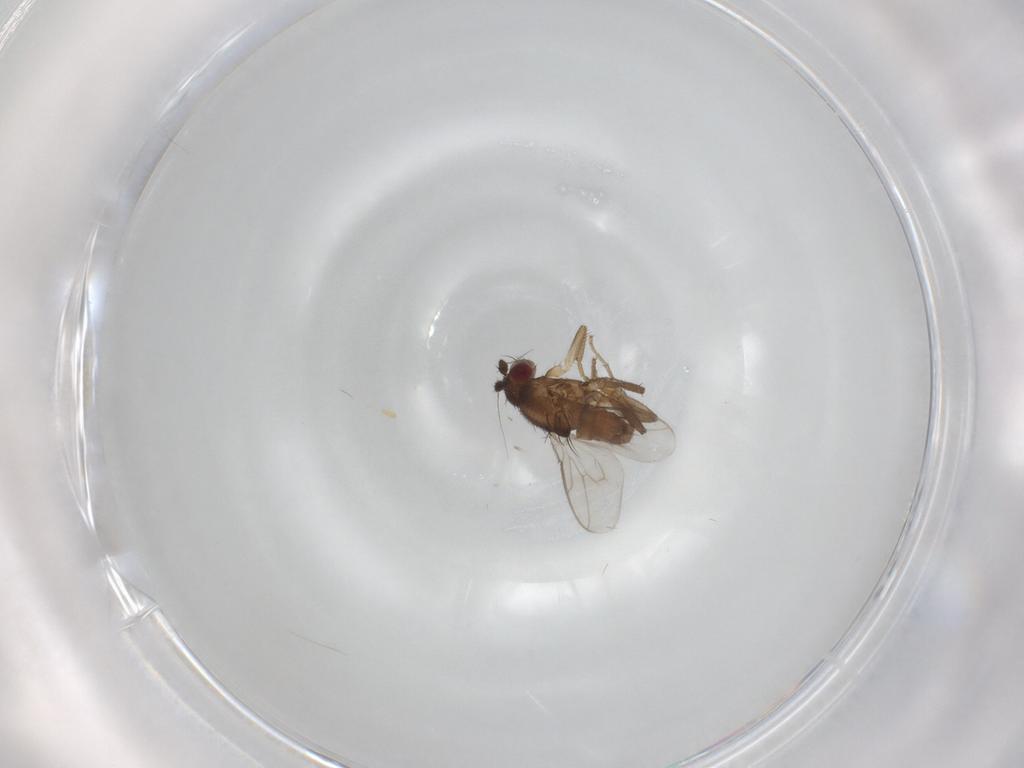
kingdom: Animalia
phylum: Arthropoda
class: Insecta
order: Diptera
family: Sphaeroceridae
